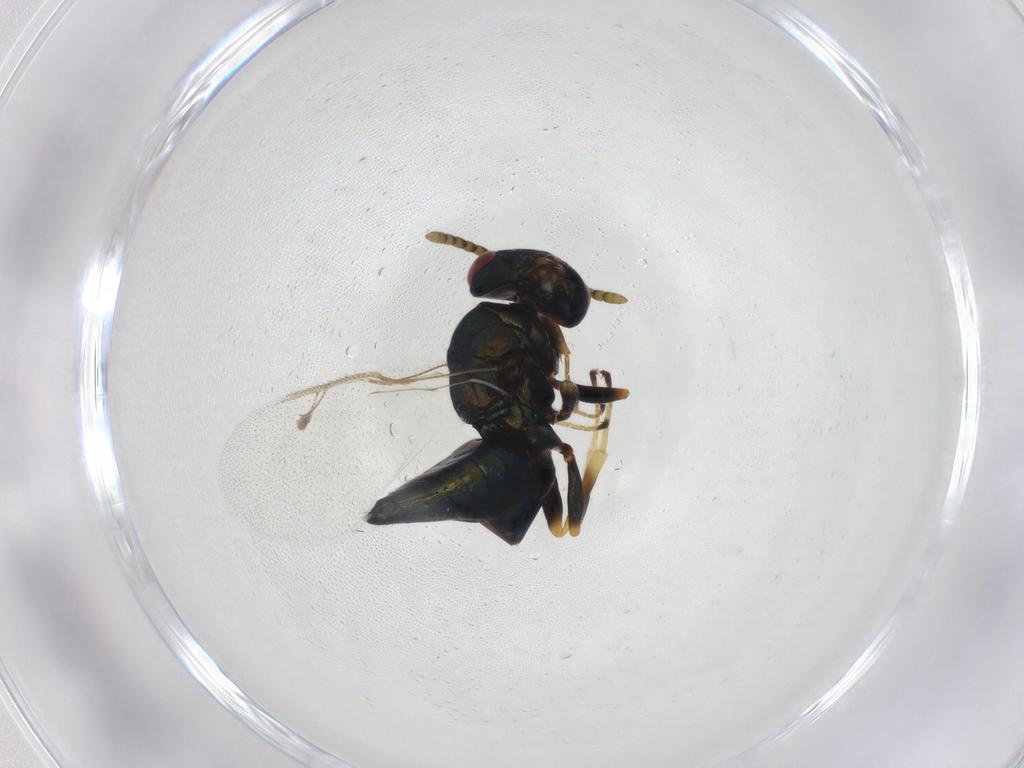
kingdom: Animalia
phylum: Arthropoda
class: Insecta
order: Hymenoptera
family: Pteromalidae
